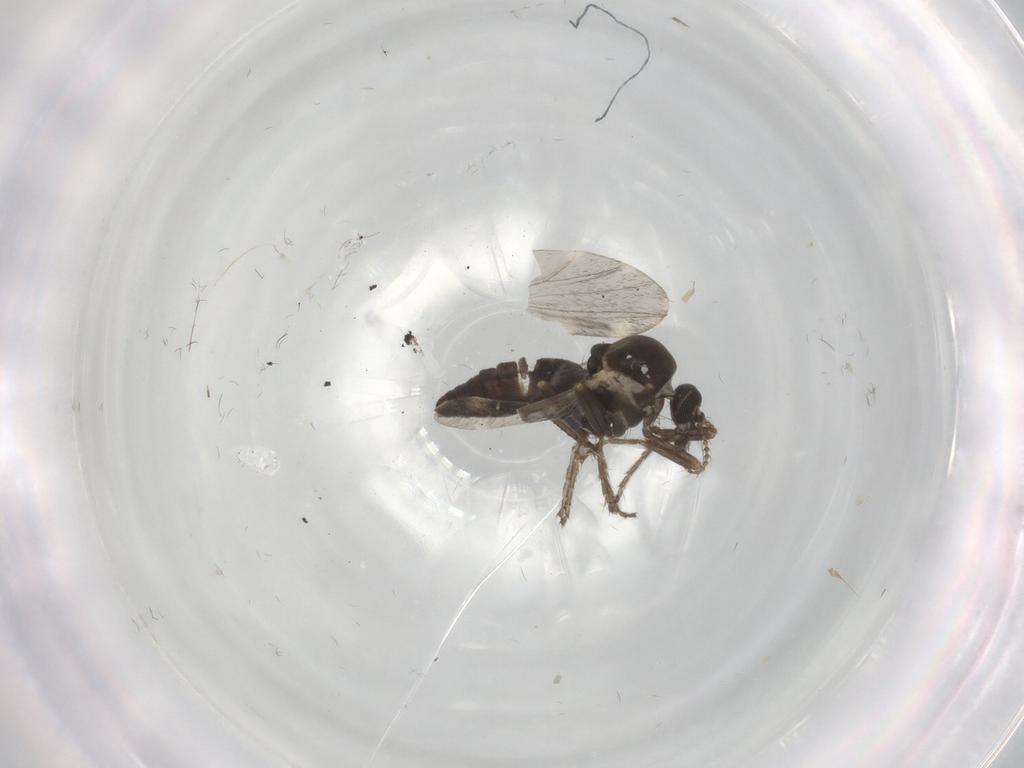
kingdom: Animalia
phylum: Arthropoda
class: Insecta
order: Diptera
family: Ceratopogonidae
